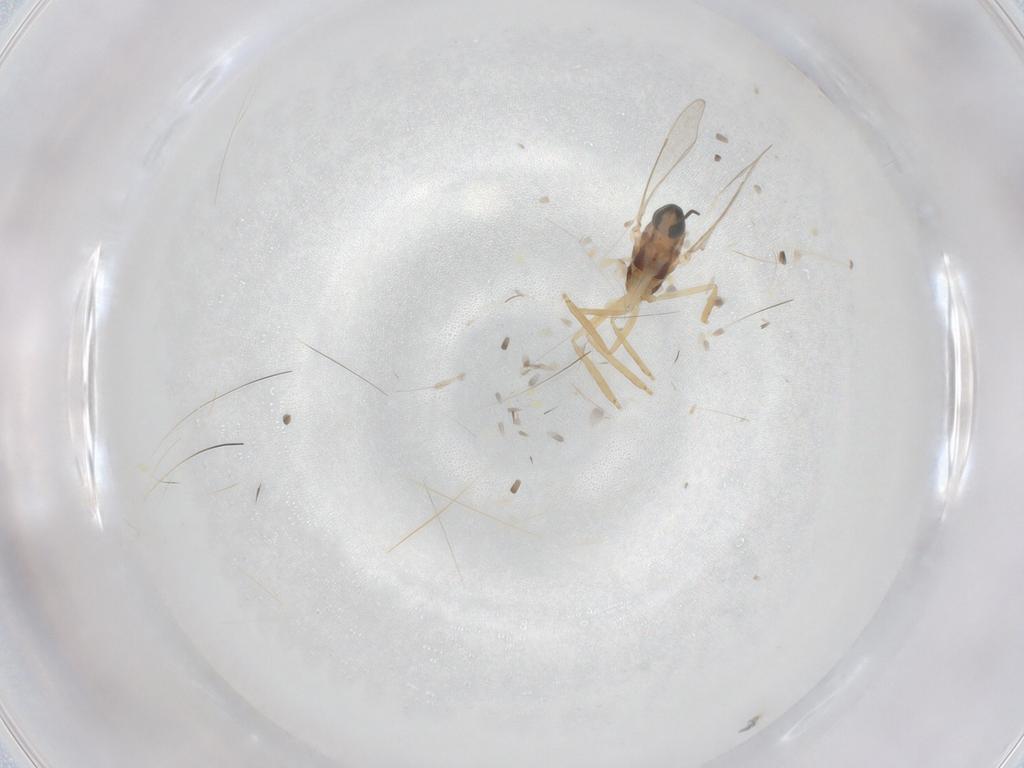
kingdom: Animalia
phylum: Arthropoda
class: Insecta
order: Diptera
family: Cecidomyiidae
